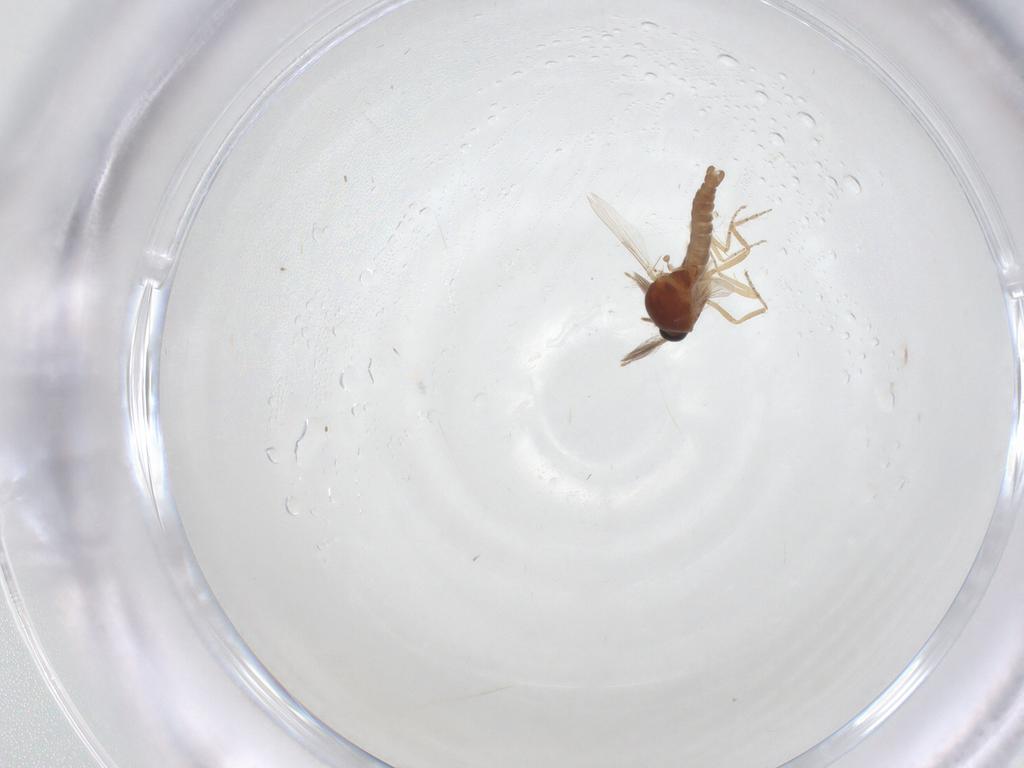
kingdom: Animalia
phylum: Arthropoda
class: Insecta
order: Diptera
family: Ceratopogonidae
